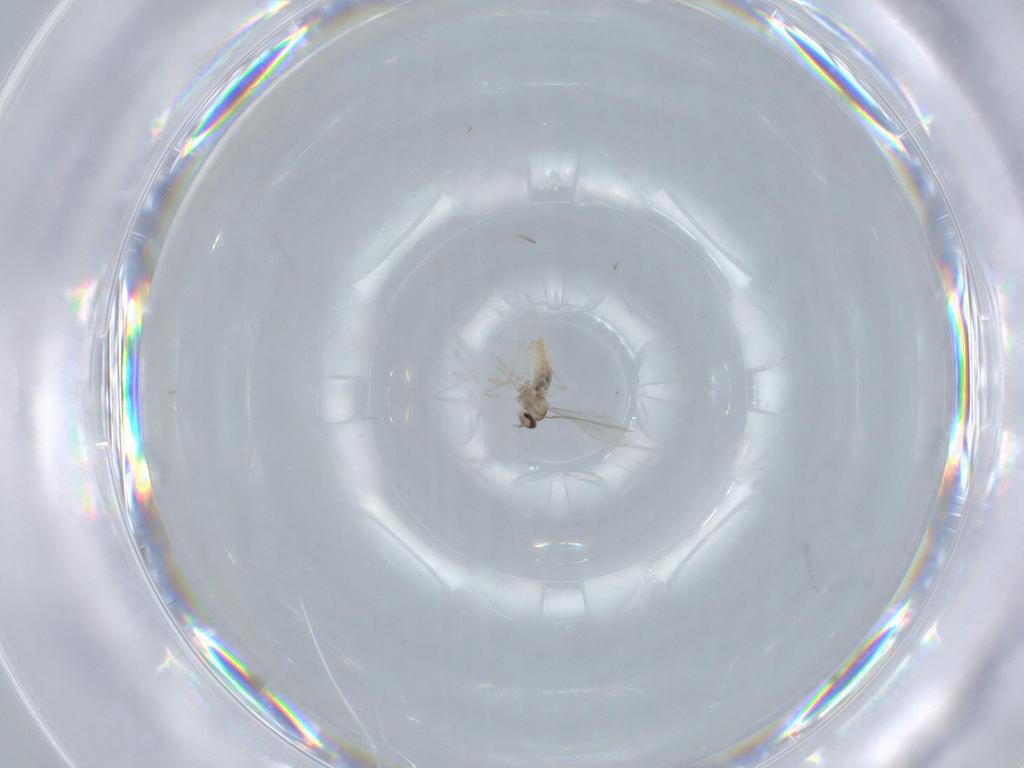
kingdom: Animalia
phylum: Arthropoda
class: Insecta
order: Diptera
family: Cecidomyiidae
